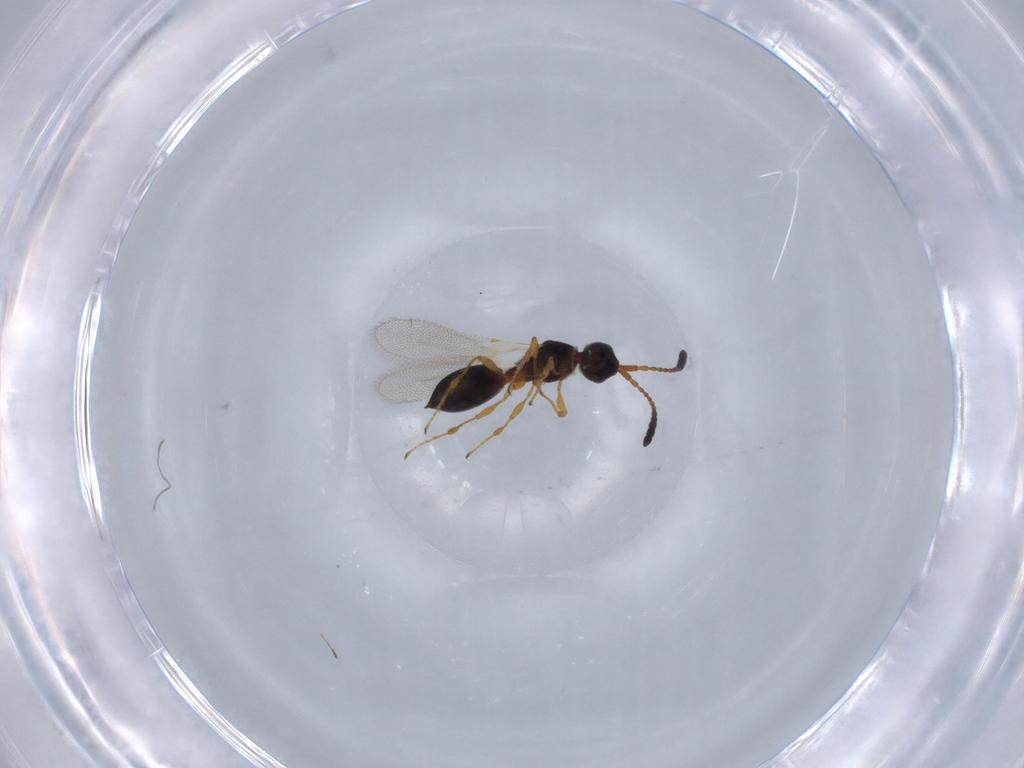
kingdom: Animalia
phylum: Arthropoda
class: Insecta
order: Hymenoptera
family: Diapriidae
